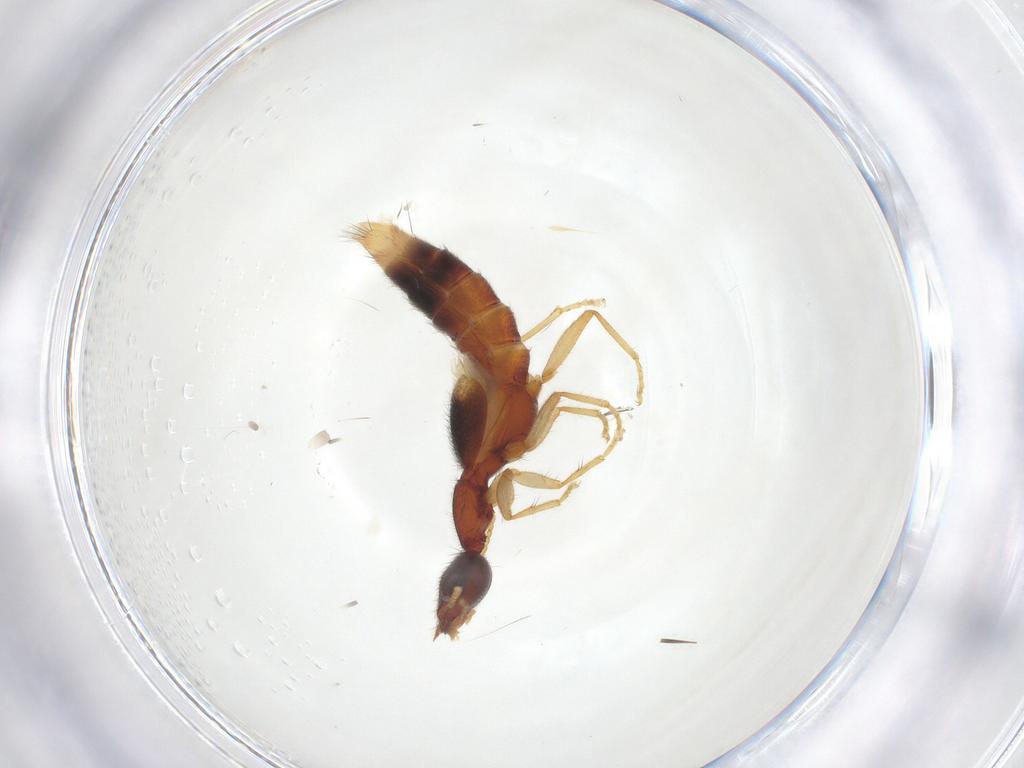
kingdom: Animalia
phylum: Arthropoda
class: Insecta
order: Coleoptera
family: Staphylinidae
